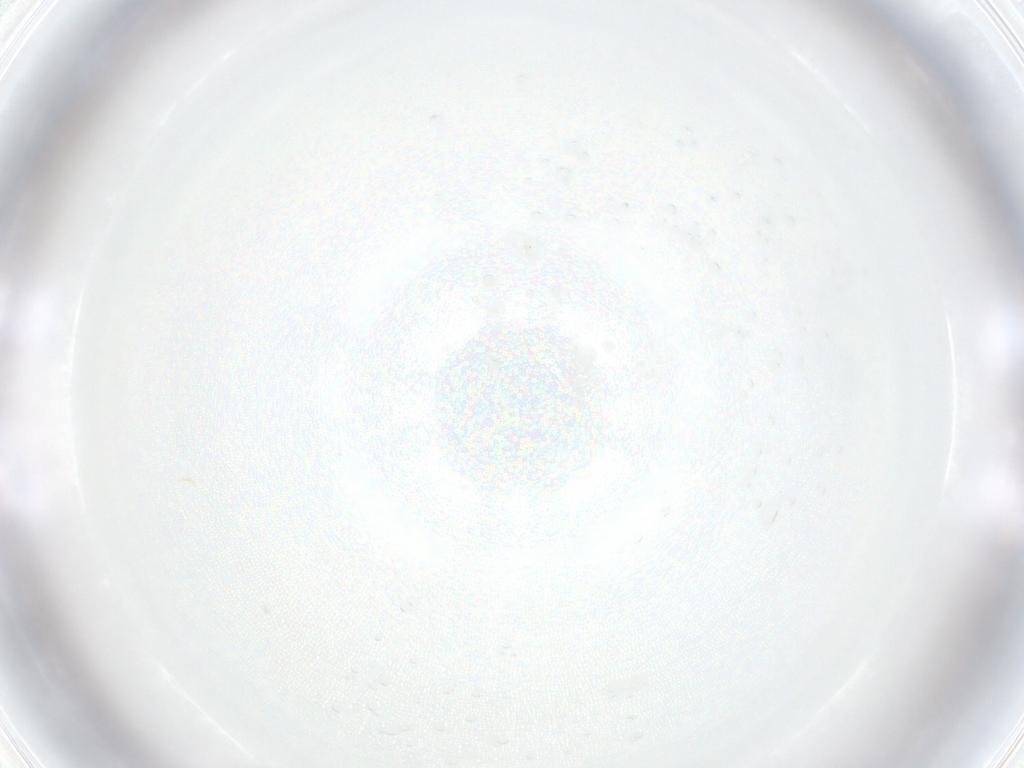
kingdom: Animalia
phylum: Arthropoda
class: Insecta
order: Diptera
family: Sciaridae
